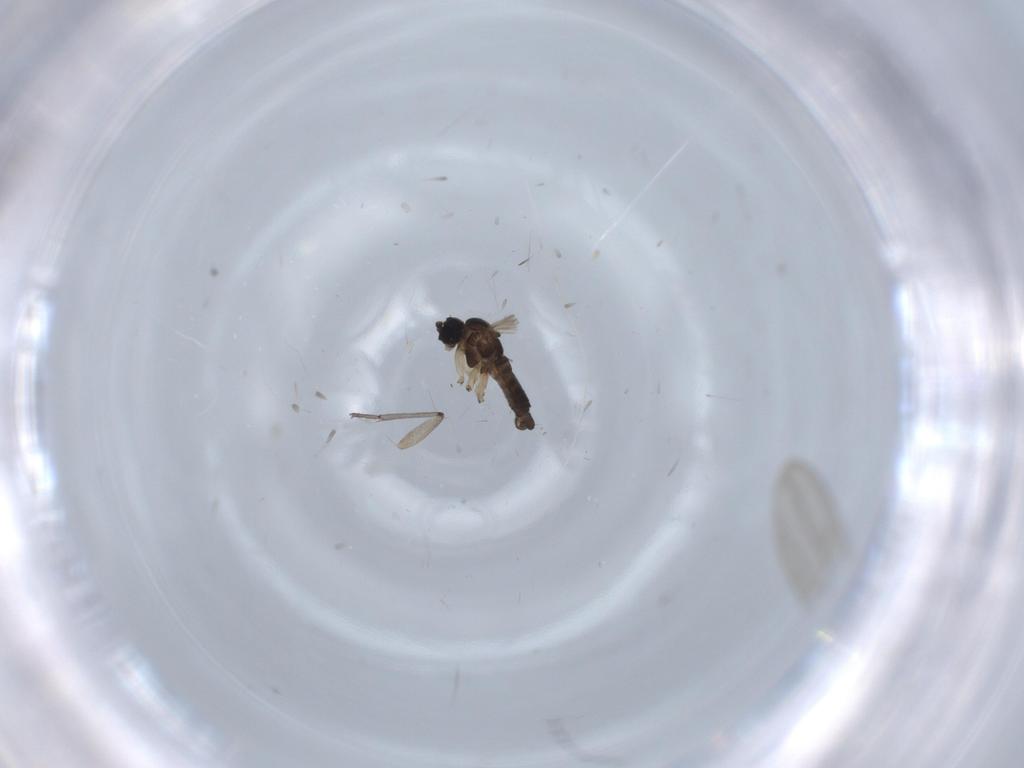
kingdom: Animalia
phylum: Arthropoda
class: Insecta
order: Diptera
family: Sciaridae
